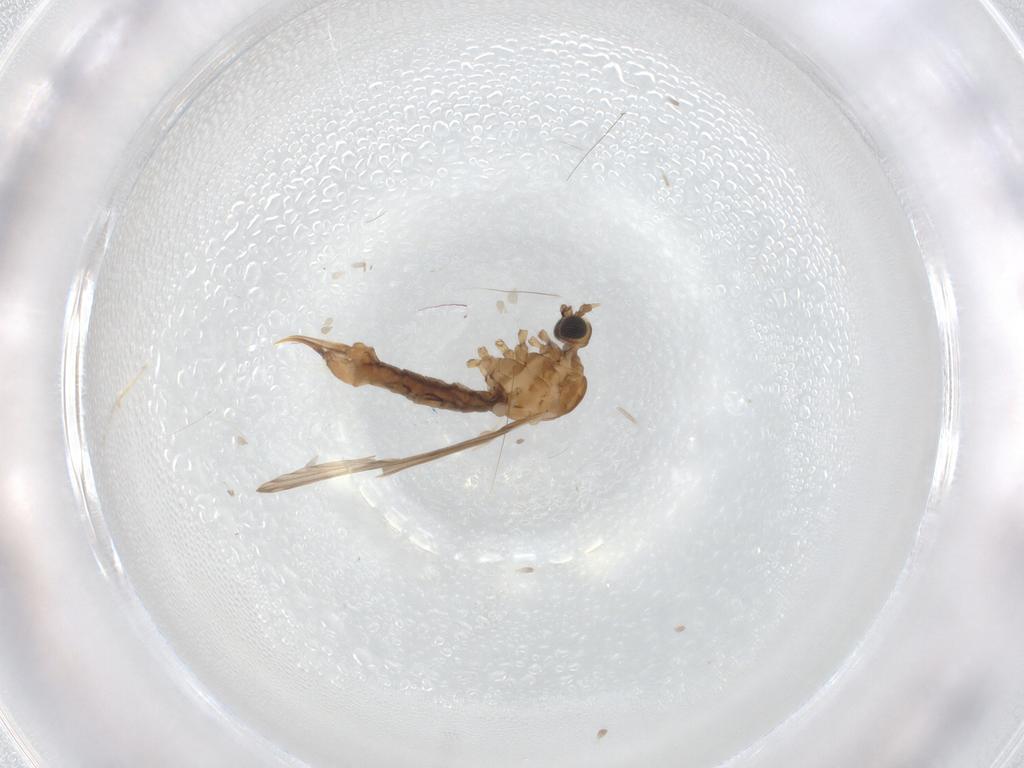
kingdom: Animalia
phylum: Arthropoda
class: Insecta
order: Diptera
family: Limoniidae
